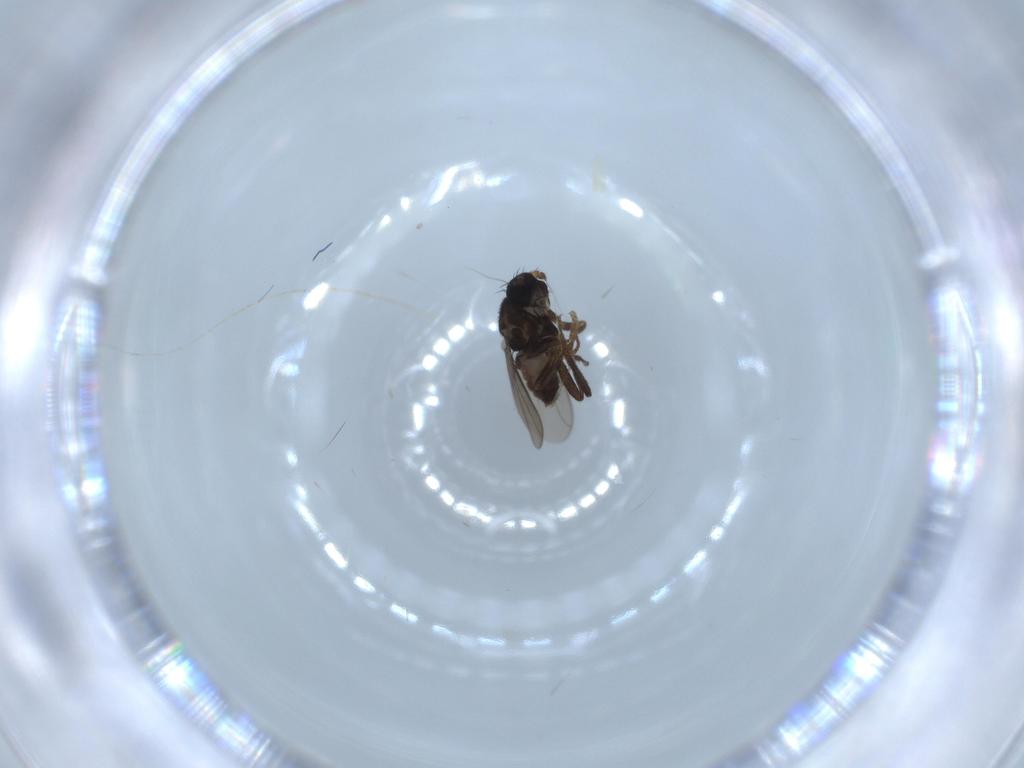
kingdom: Animalia
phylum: Arthropoda
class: Insecta
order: Diptera
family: Sphaeroceridae
